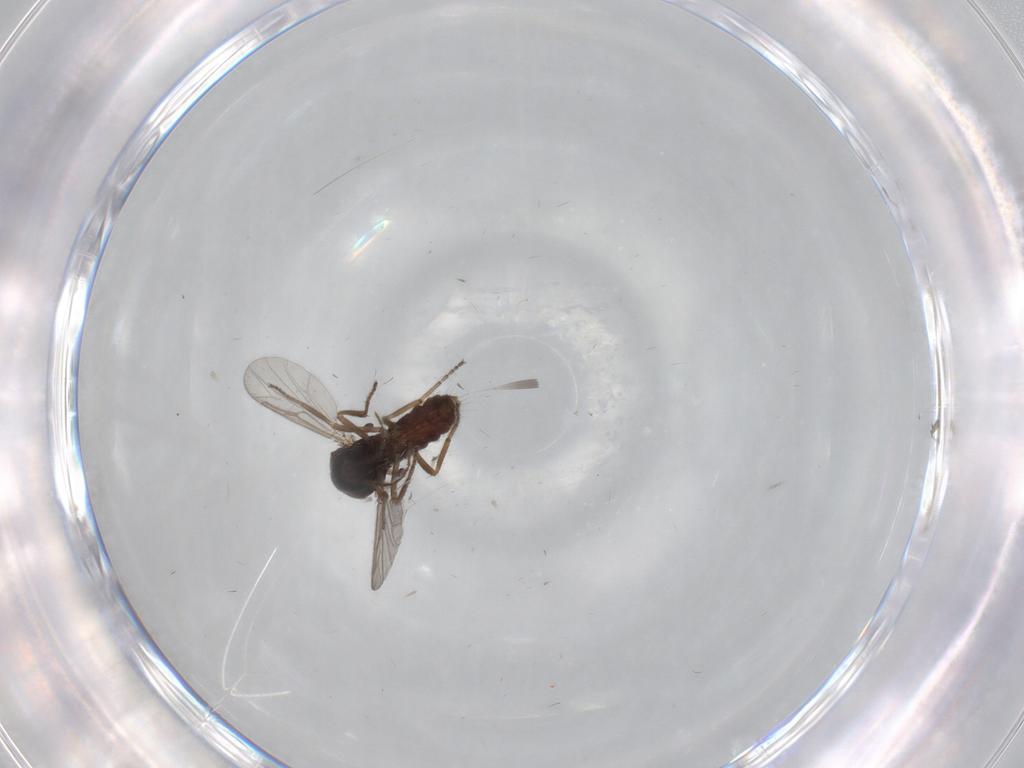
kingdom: Animalia
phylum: Arthropoda
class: Insecta
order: Diptera
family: Ceratopogonidae
